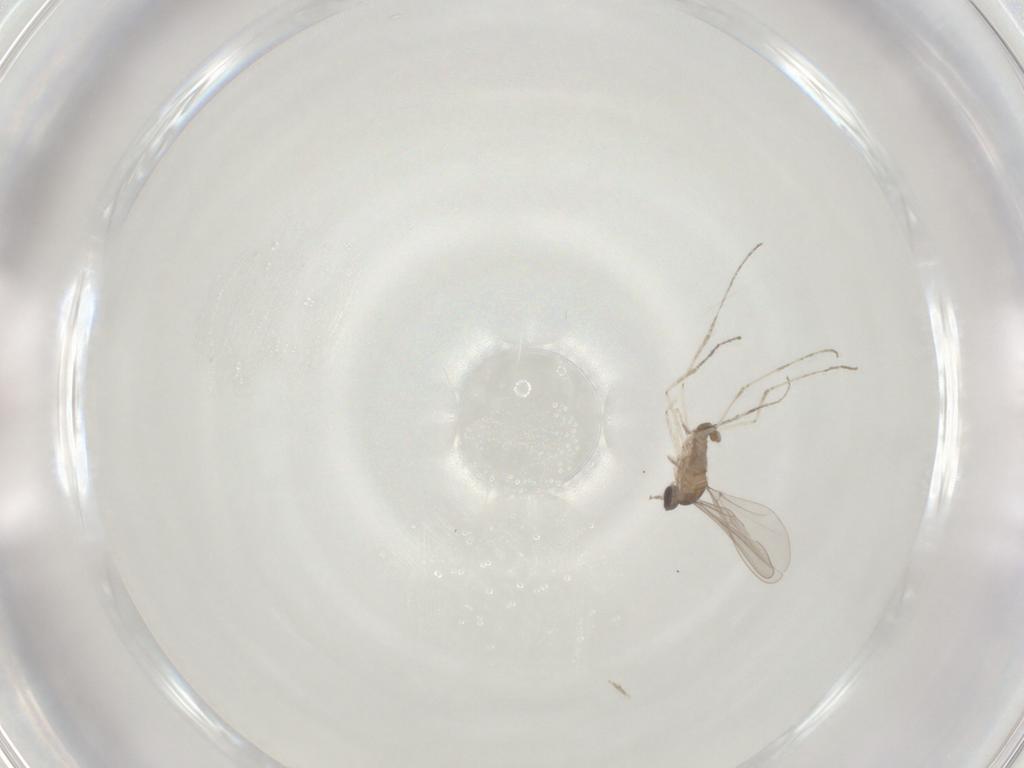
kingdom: Animalia
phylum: Arthropoda
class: Insecta
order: Diptera
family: Cecidomyiidae
